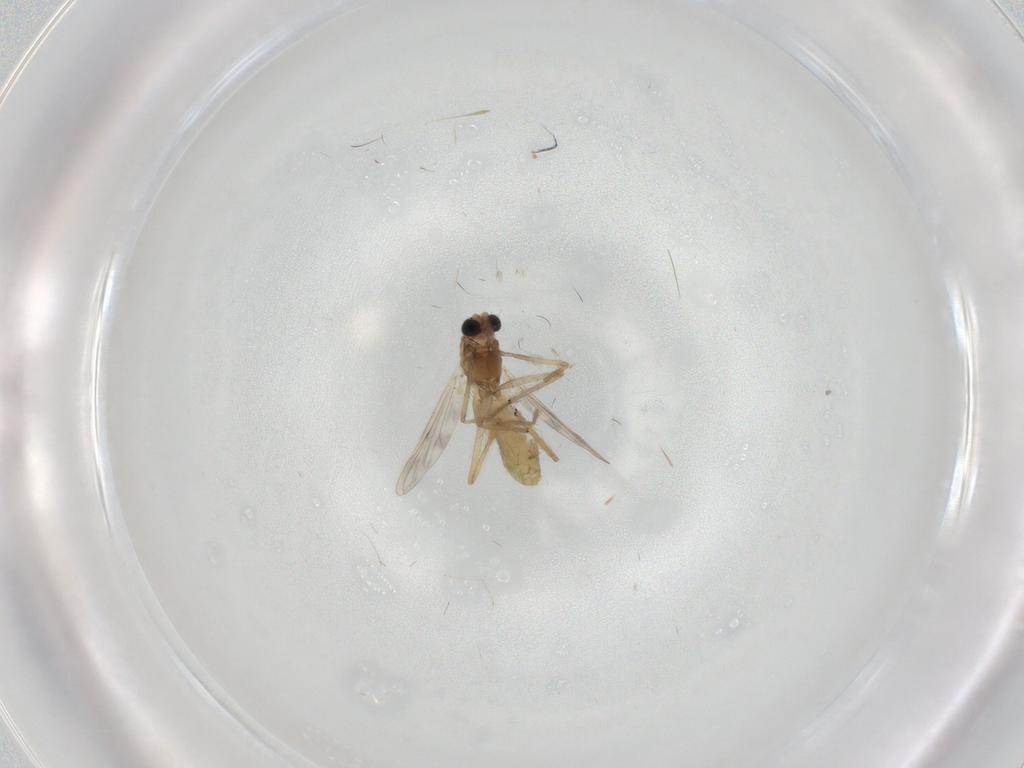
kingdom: Animalia
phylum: Arthropoda
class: Insecta
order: Diptera
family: Chironomidae
